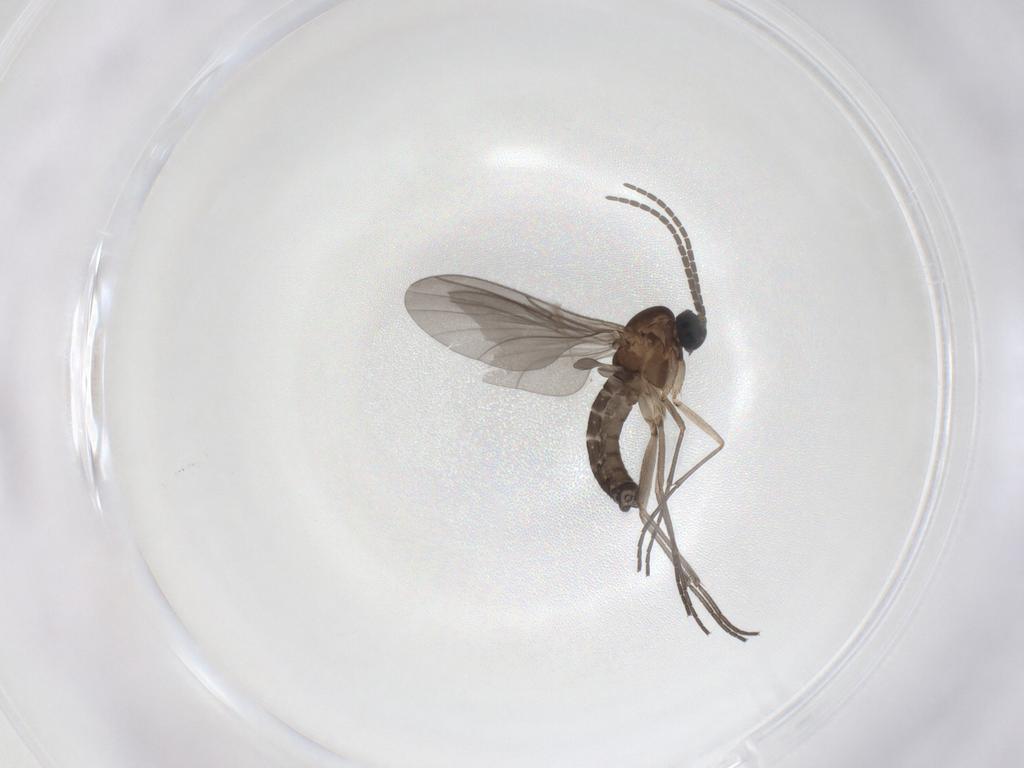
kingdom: Animalia
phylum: Arthropoda
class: Insecta
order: Diptera
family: Sciaridae
